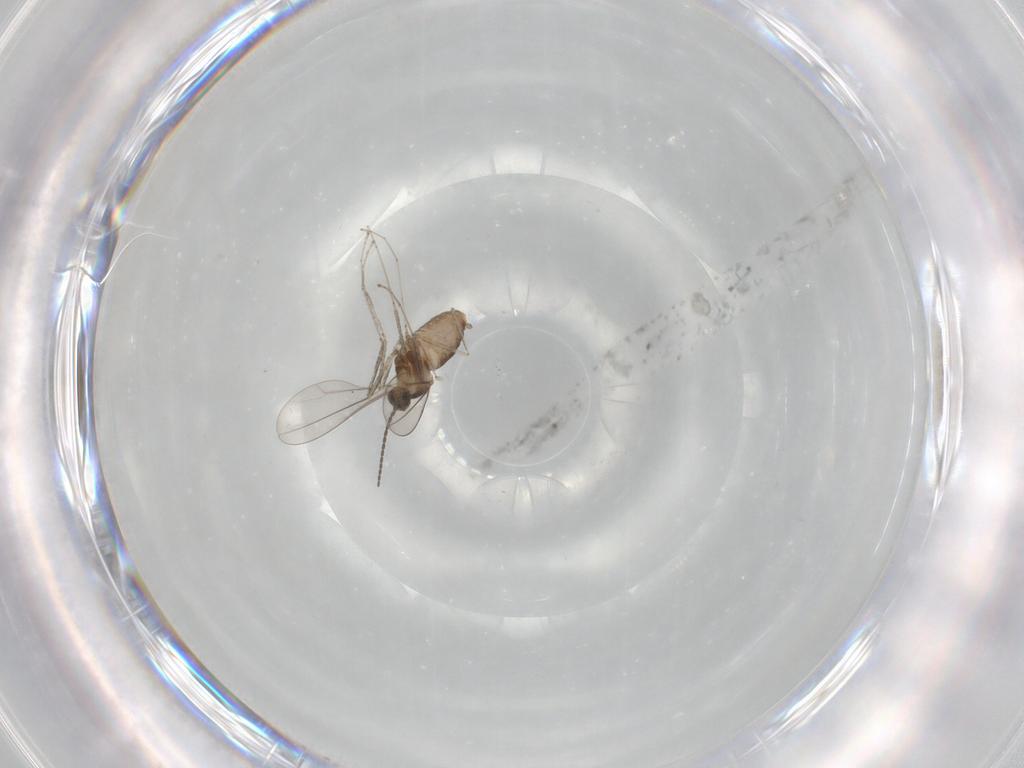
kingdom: Animalia
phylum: Arthropoda
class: Insecta
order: Diptera
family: Cecidomyiidae
